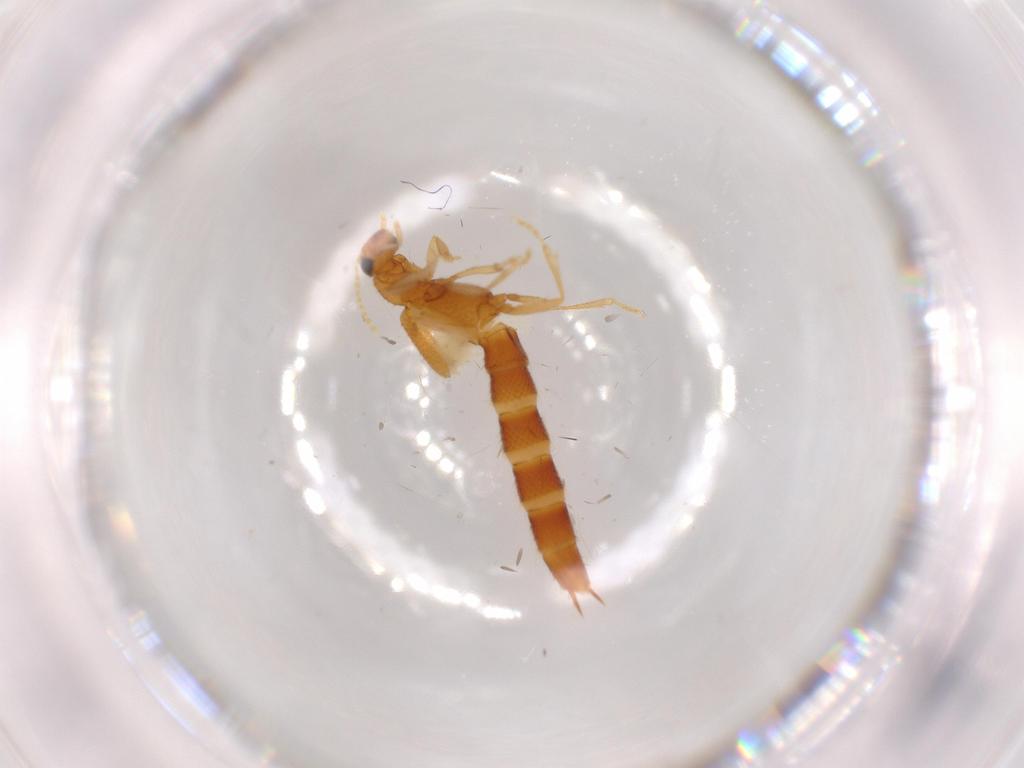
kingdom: Animalia
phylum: Arthropoda
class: Insecta
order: Coleoptera
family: Staphylinidae
